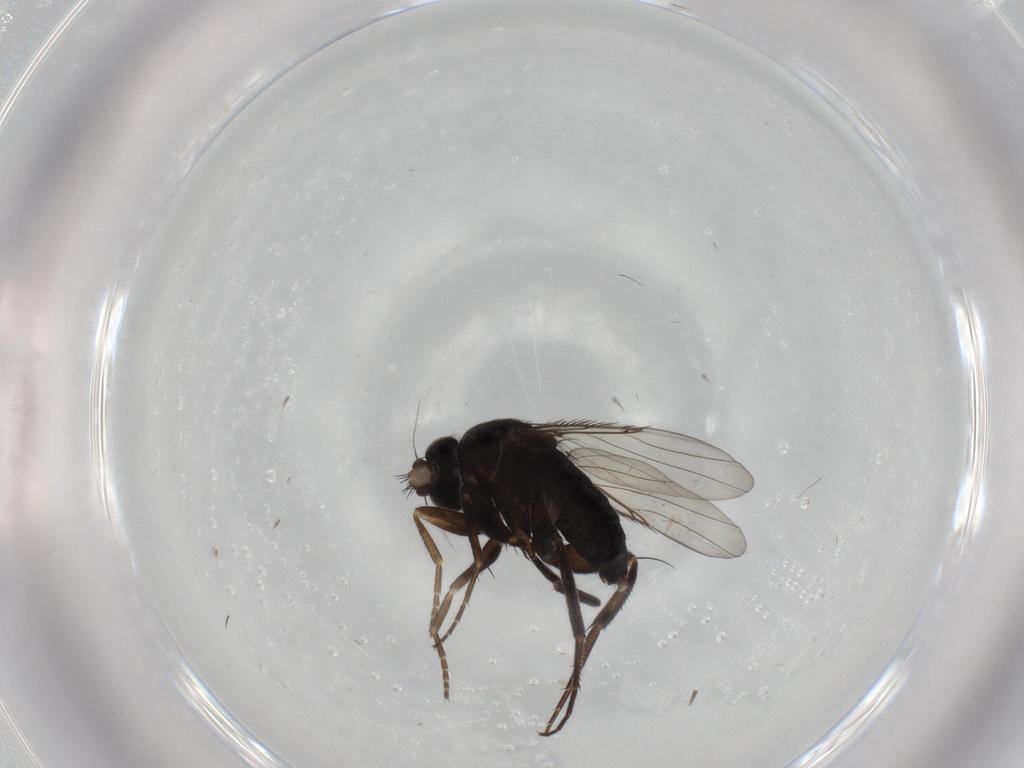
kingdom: Animalia
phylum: Arthropoda
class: Insecta
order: Diptera
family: Phoridae
